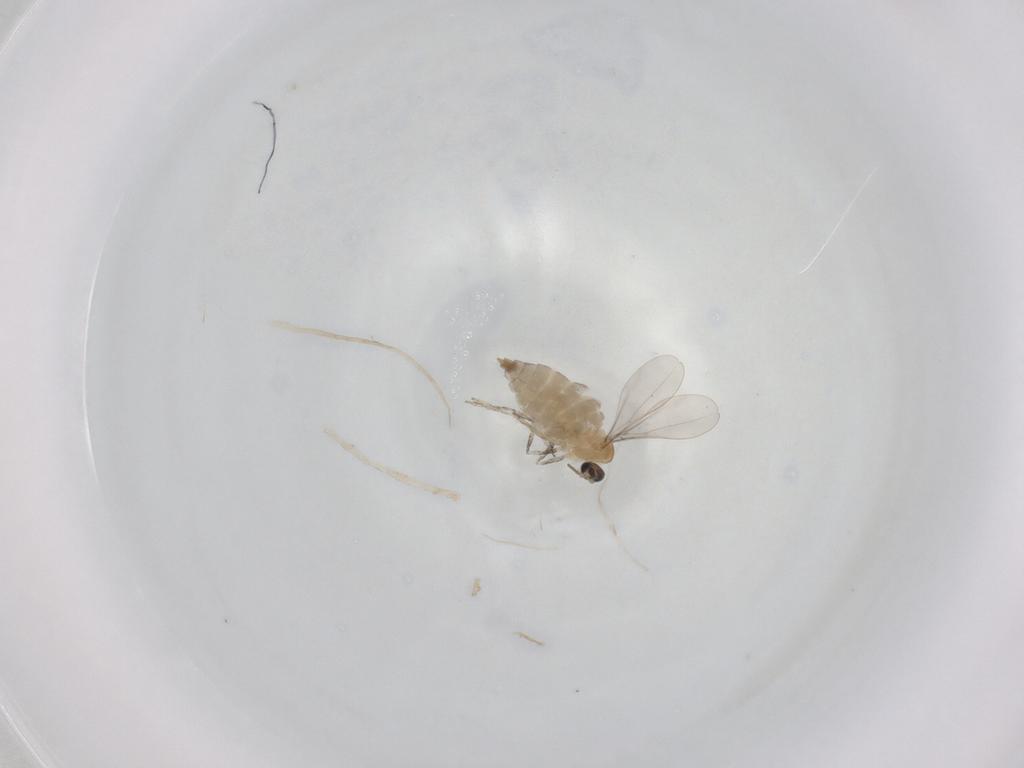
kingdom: Animalia
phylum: Arthropoda
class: Insecta
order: Diptera
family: Cecidomyiidae
